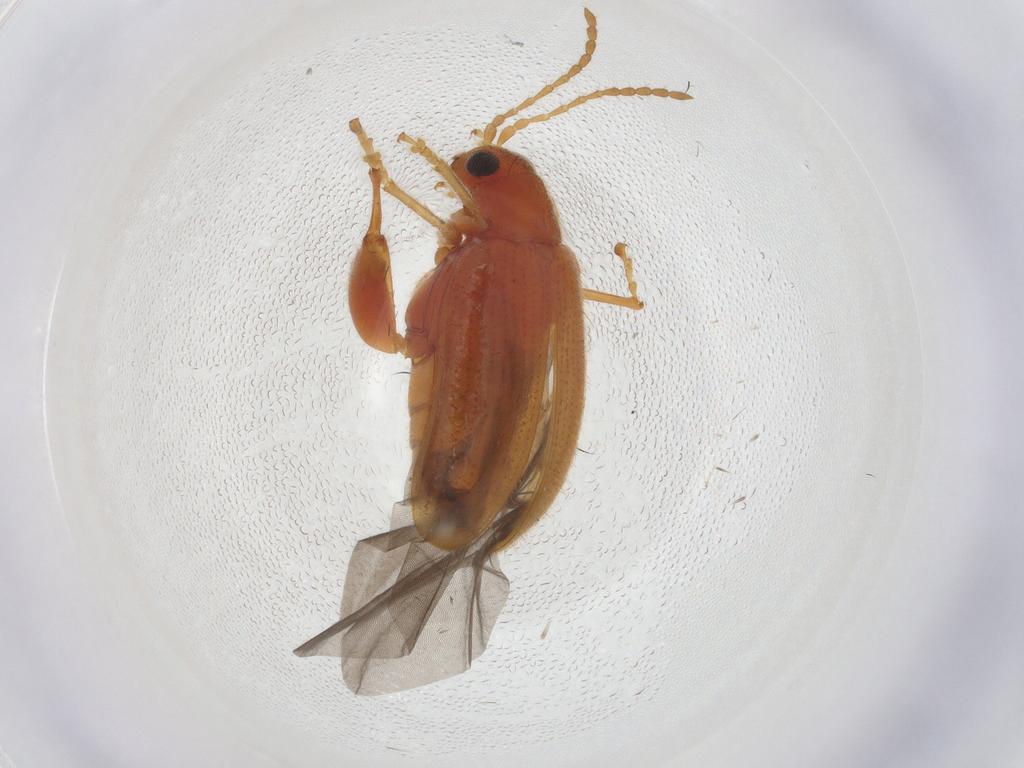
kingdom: Animalia
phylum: Arthropoda
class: Insecta
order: Coleoptera
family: Chrysomelidae
